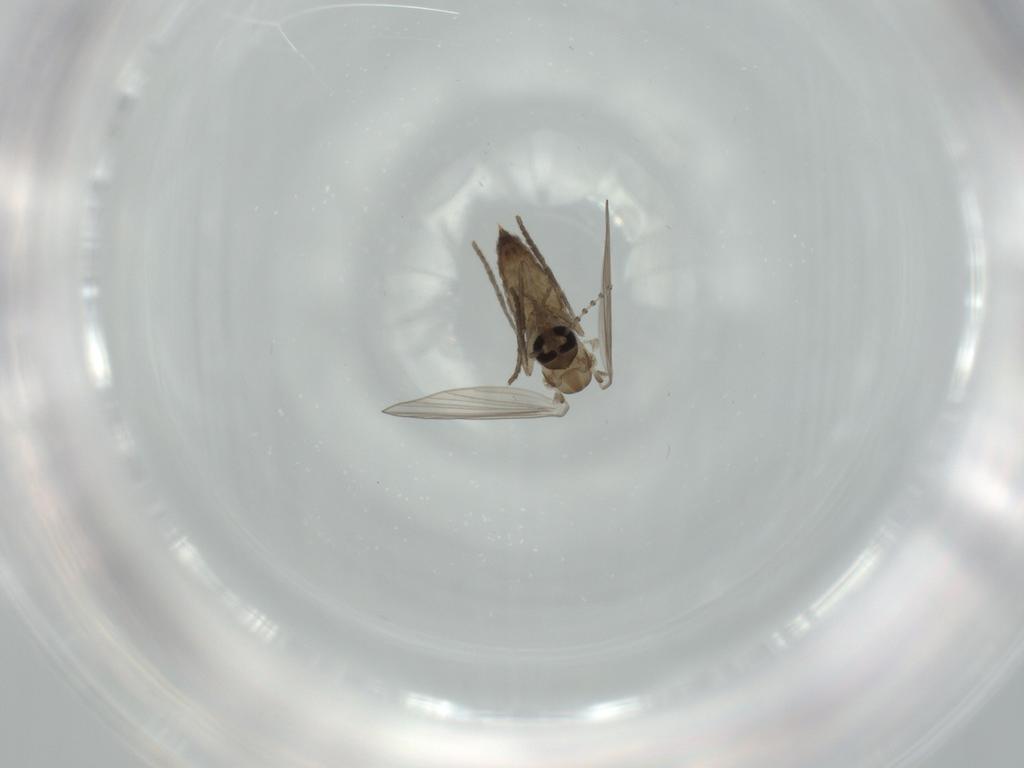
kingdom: Animalia
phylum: Arthropoda
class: Insecta
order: Diptera
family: Psychodidae
